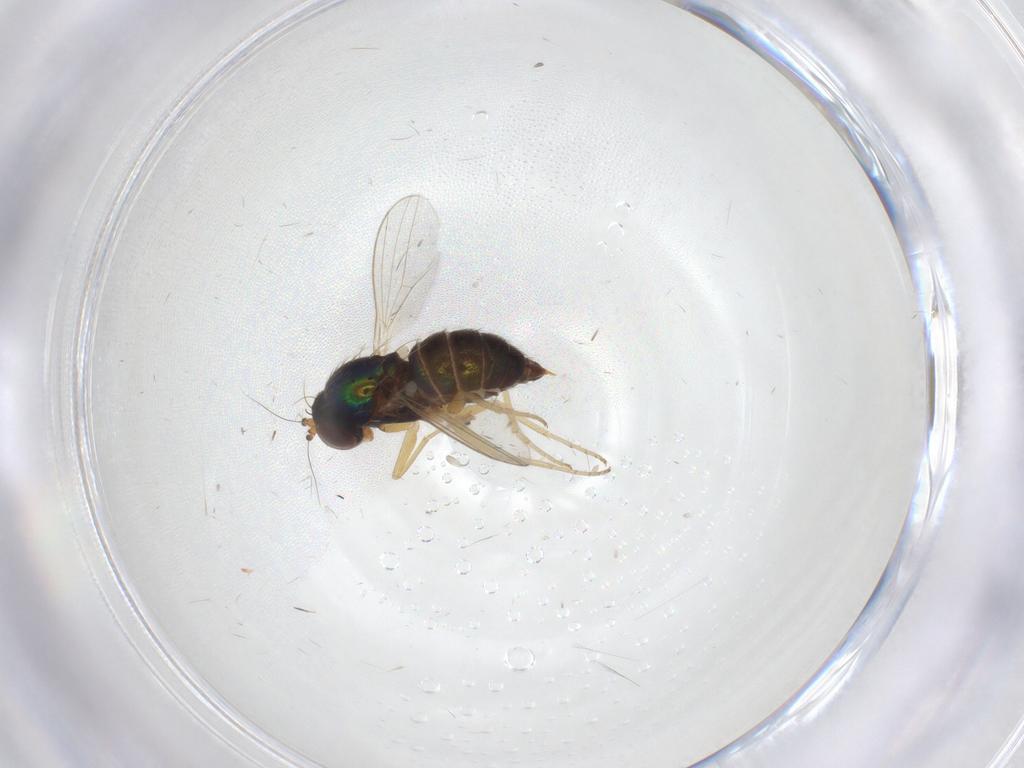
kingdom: Animalia
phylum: Arthropoda
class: Insecta
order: Diptera
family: Dolichopodidae
